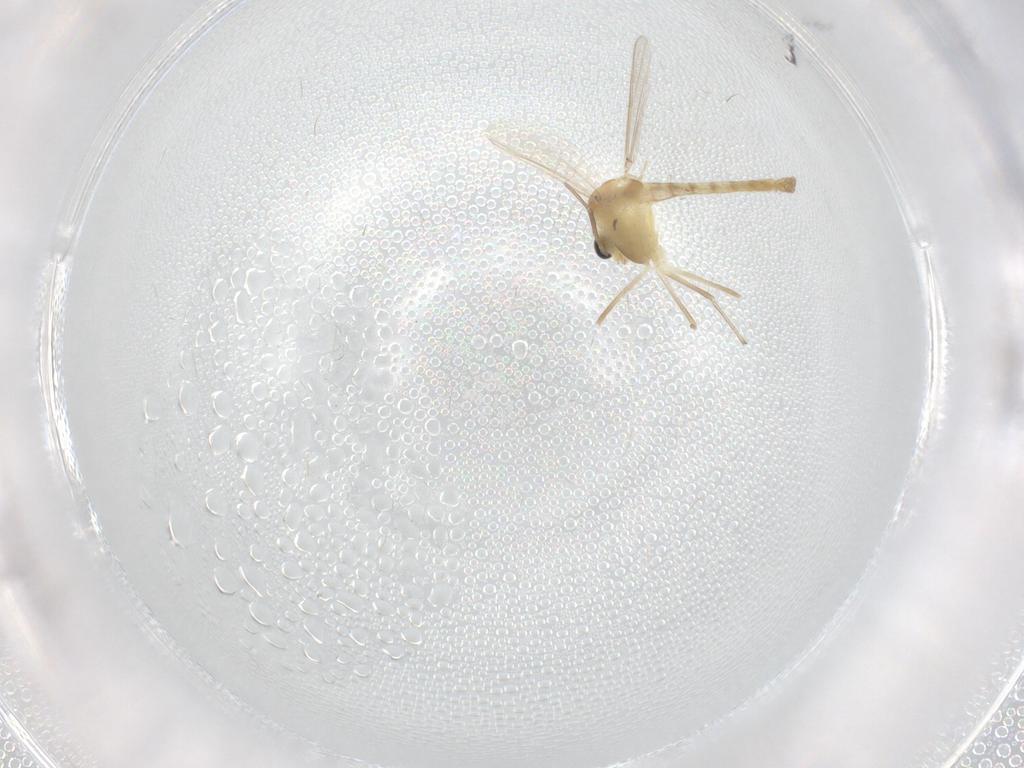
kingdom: Animalia
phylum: Arthropoda
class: Insecta
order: Diptera
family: Chironomidae
